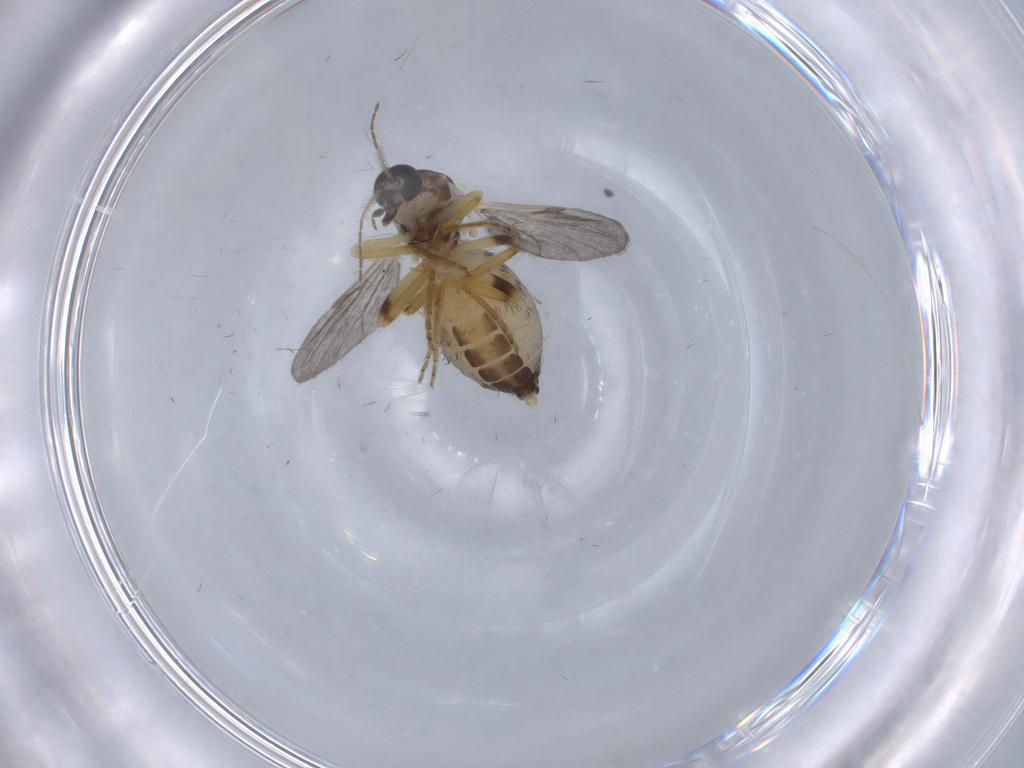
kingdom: Animalia
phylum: Arthropoda
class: Insecta
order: Diptera
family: Ceratopogonidae
